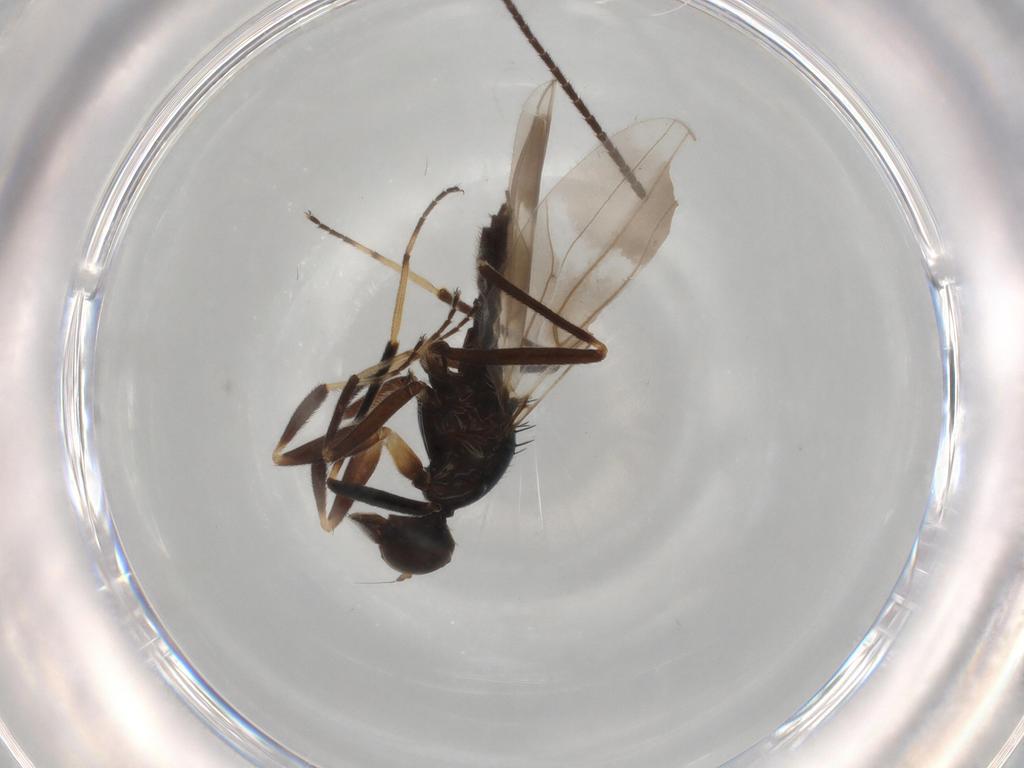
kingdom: Animalia
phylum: Arthropoda
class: Insecta
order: Diptera
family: Hybotidae
